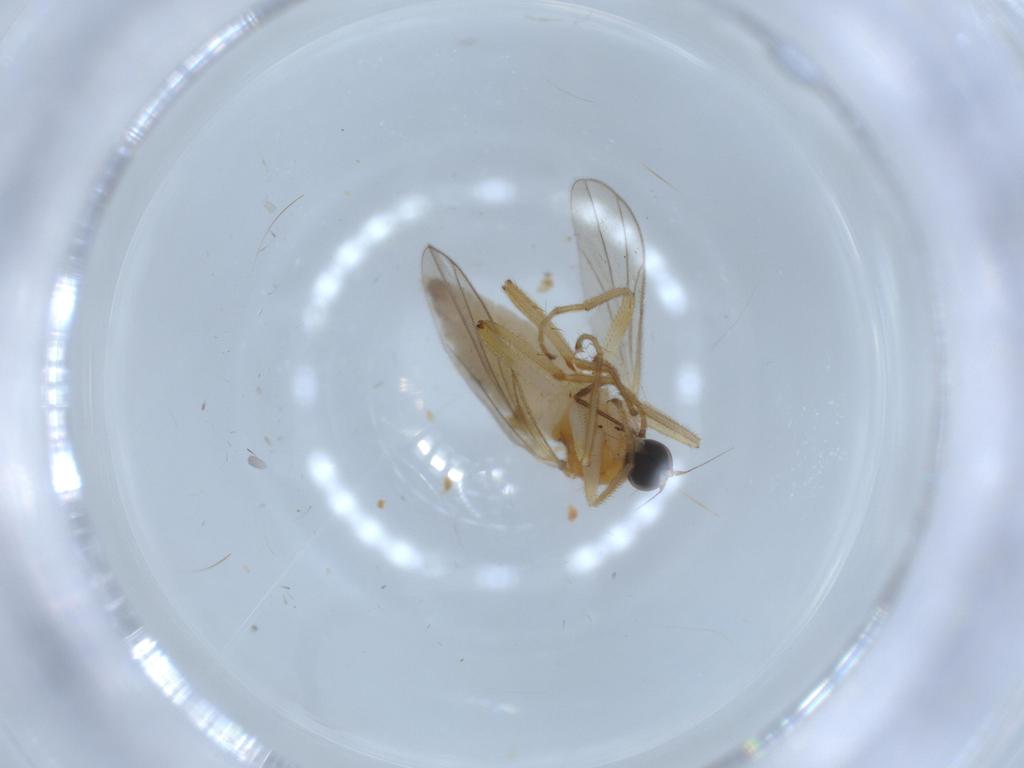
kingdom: Animalia
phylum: Arthropoda
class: Insecta
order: Diptera
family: Hybotidae
